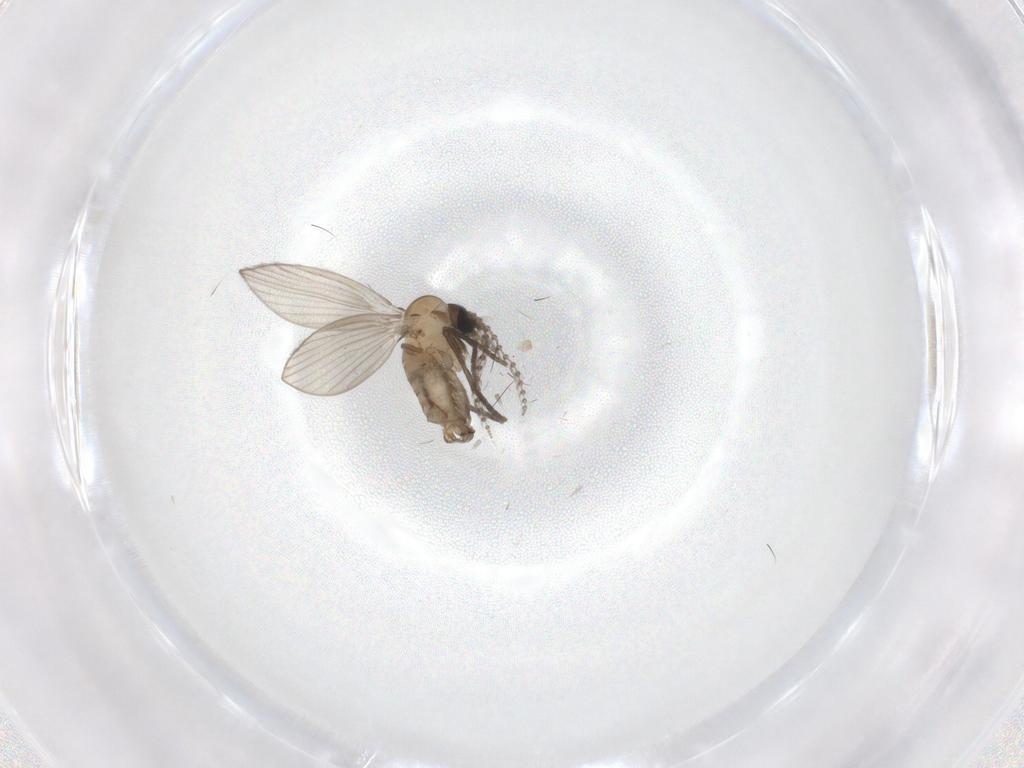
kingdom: Animalia
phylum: Arthropoda
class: Insecta
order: Diptera
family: Psychodidae
